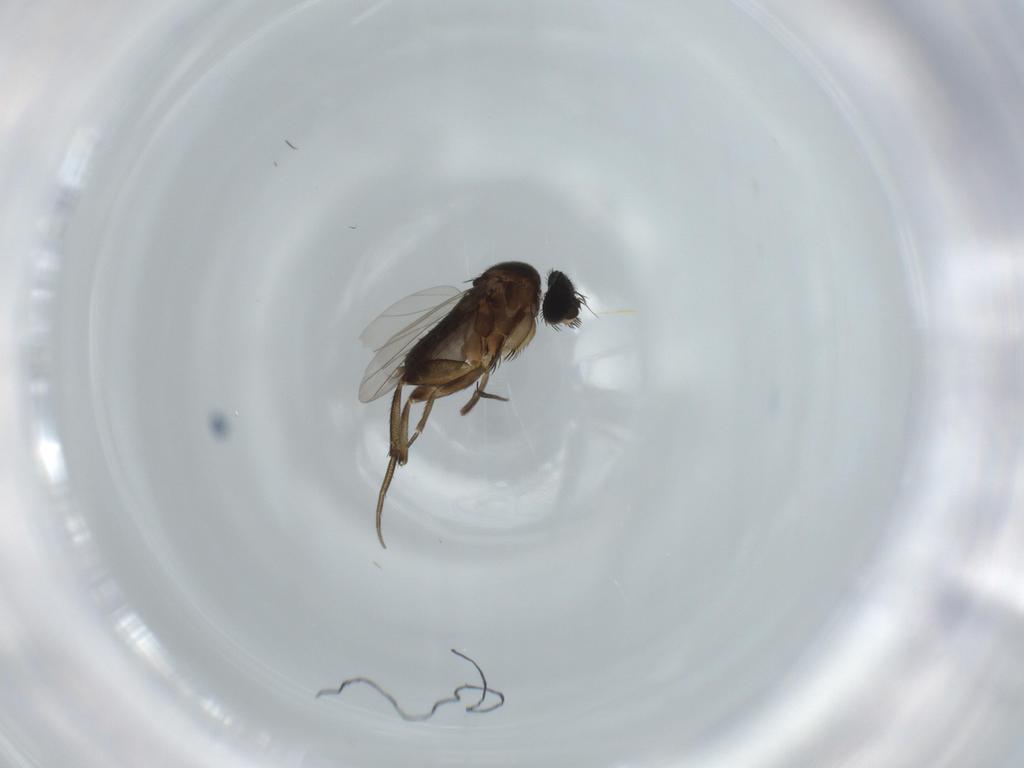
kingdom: Animalia
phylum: Arthropoda
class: Insecta
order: Diptera
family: Phoridae
